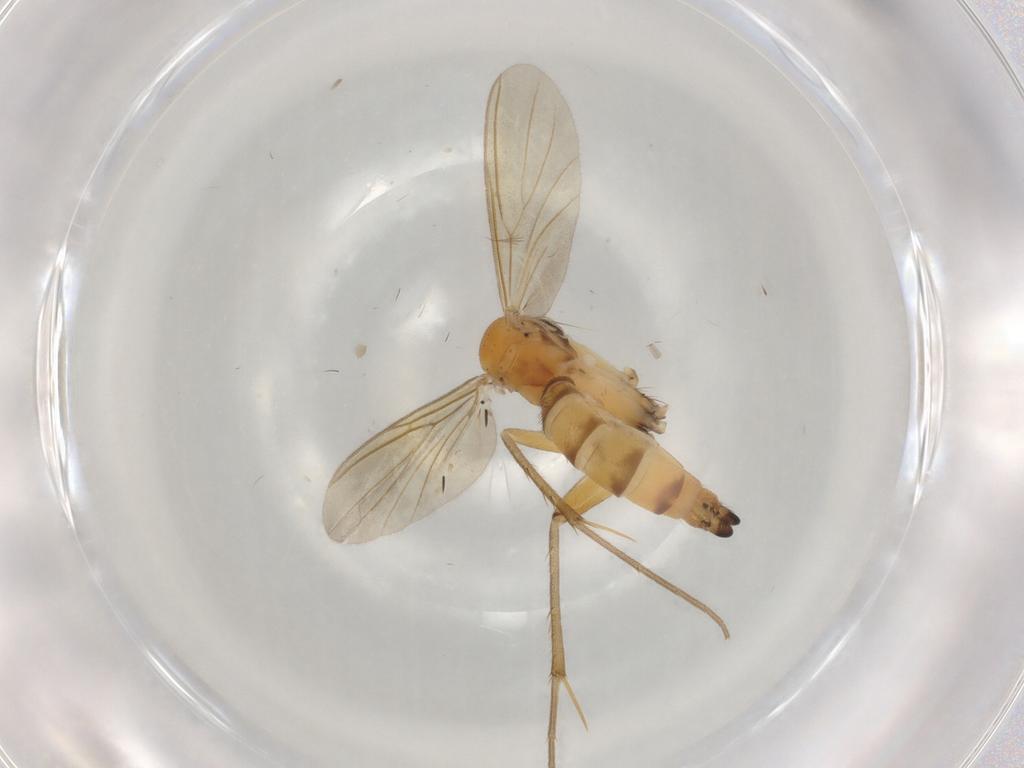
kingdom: Animalia
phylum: Arthropoda
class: Insecta
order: Diptera
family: Mycetophilidae
